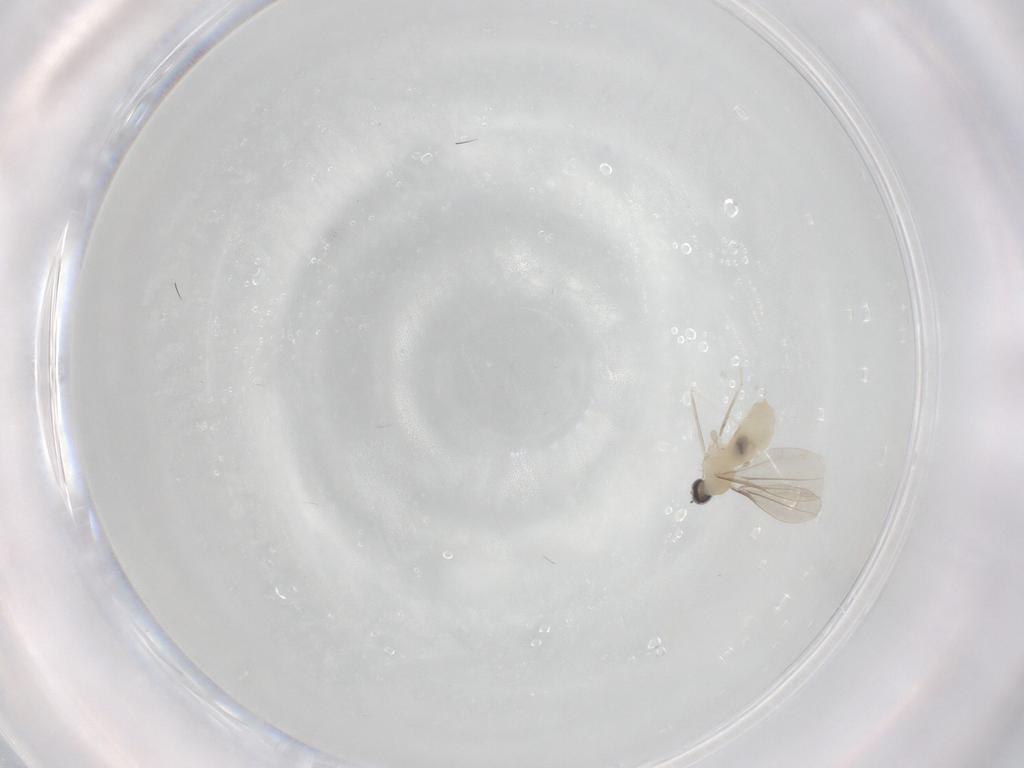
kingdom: Animalia
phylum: Arthropoda
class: Insecta
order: Diptera
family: Cecidomyiidae
